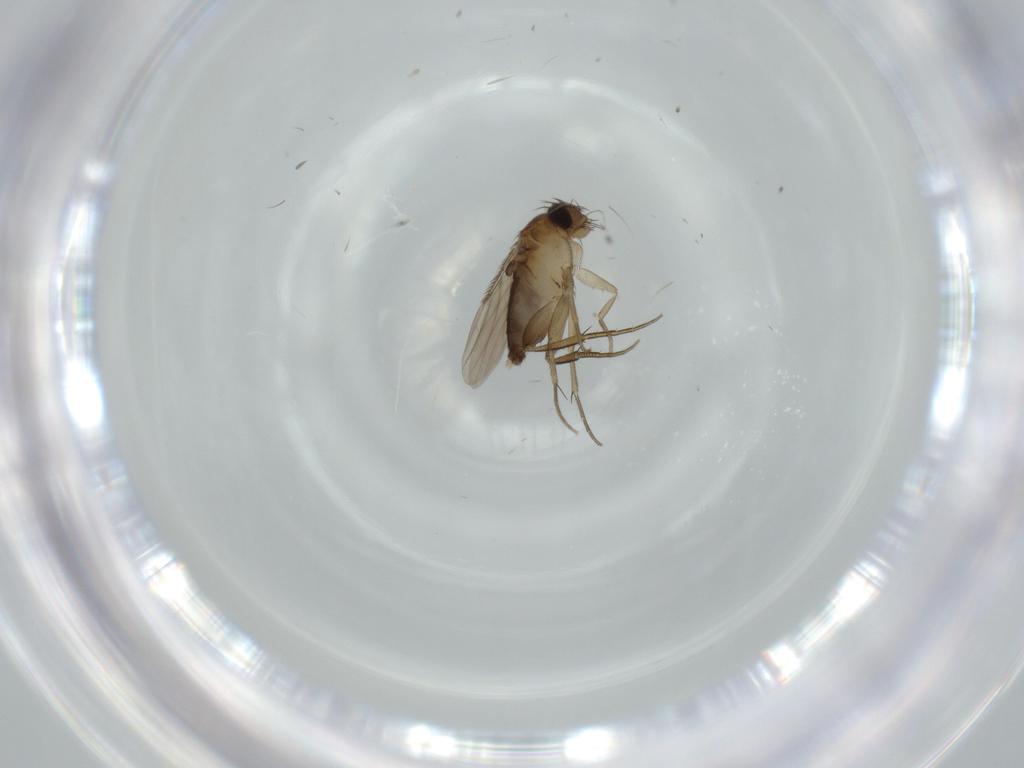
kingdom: Animalia
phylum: Arthropoda
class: Insecta
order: Diptera
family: Phoridae
